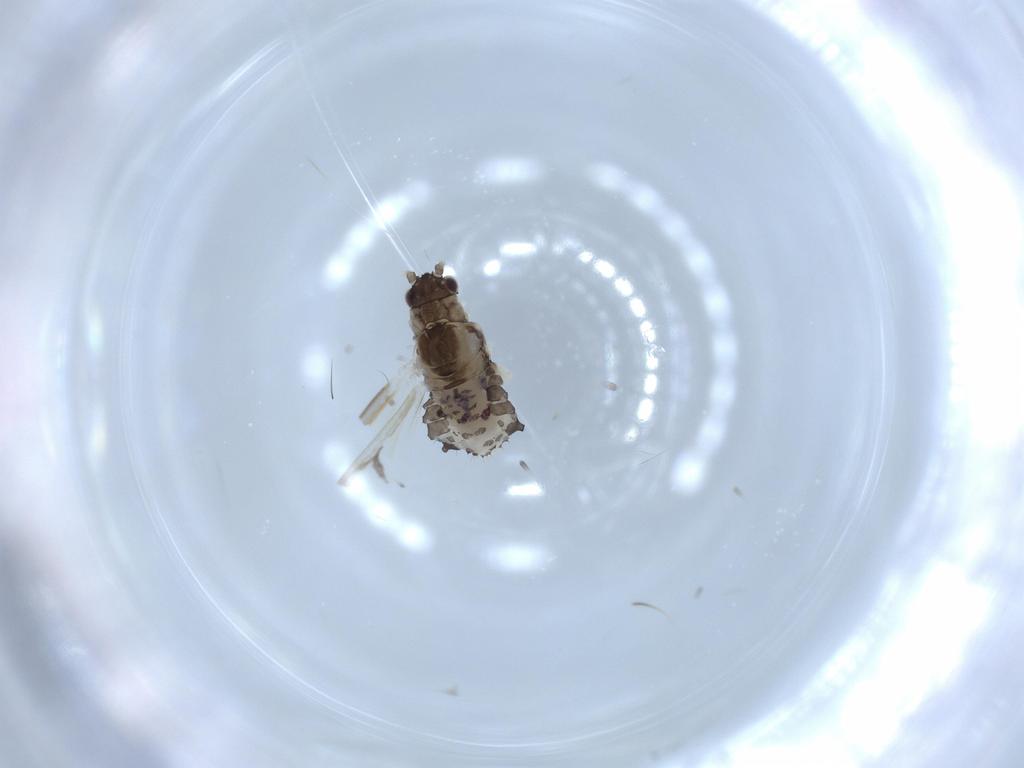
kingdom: Animalia
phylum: Arthropoda
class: Insecta
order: Hemiptera
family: Aphididae
